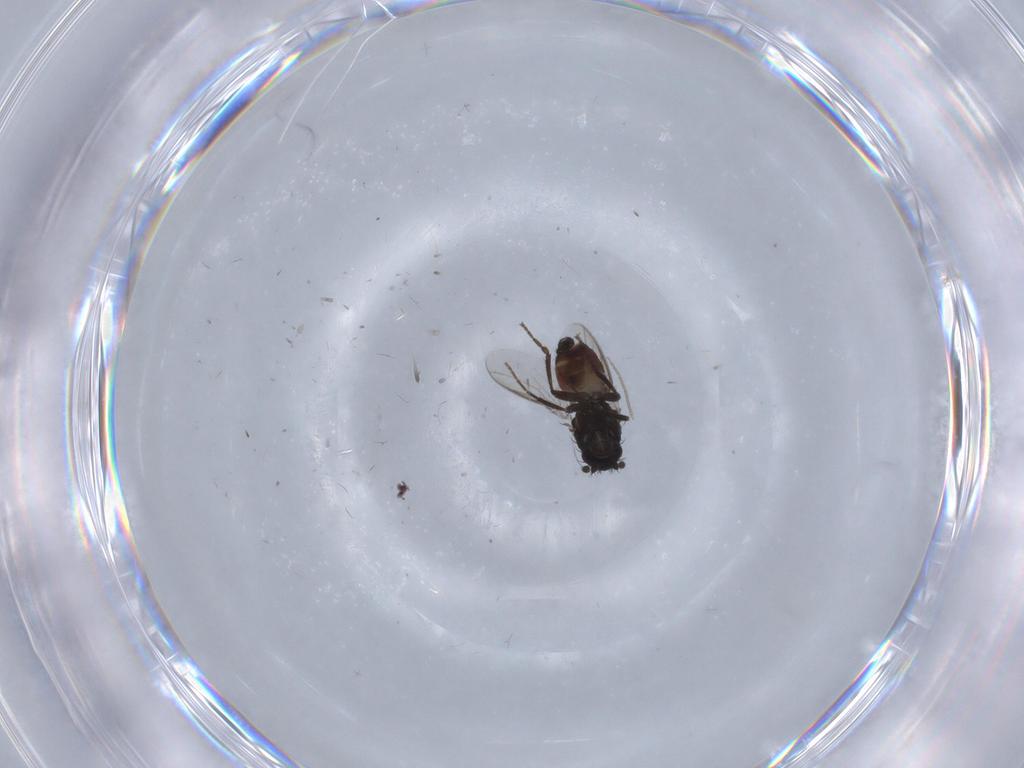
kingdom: Animalia
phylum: Arthropoda
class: Insecta
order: Diptera
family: Sphaeroceridae
